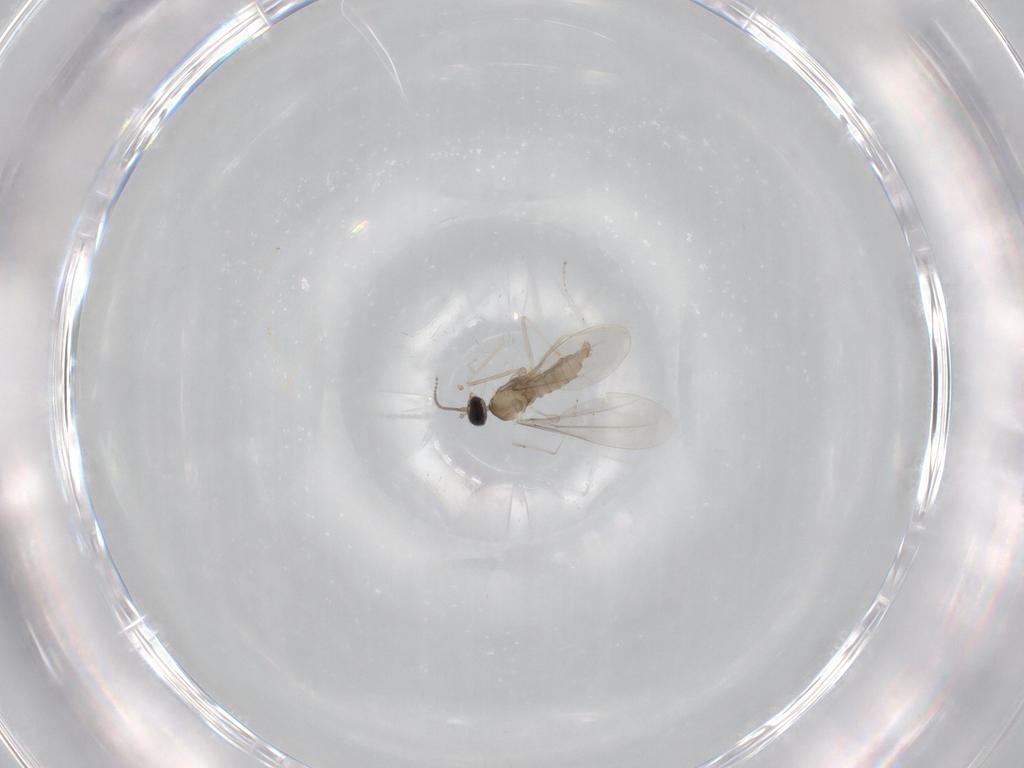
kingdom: Animalia
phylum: Arthropoda
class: Insecta
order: Diptera
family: Cecidomyiidae
